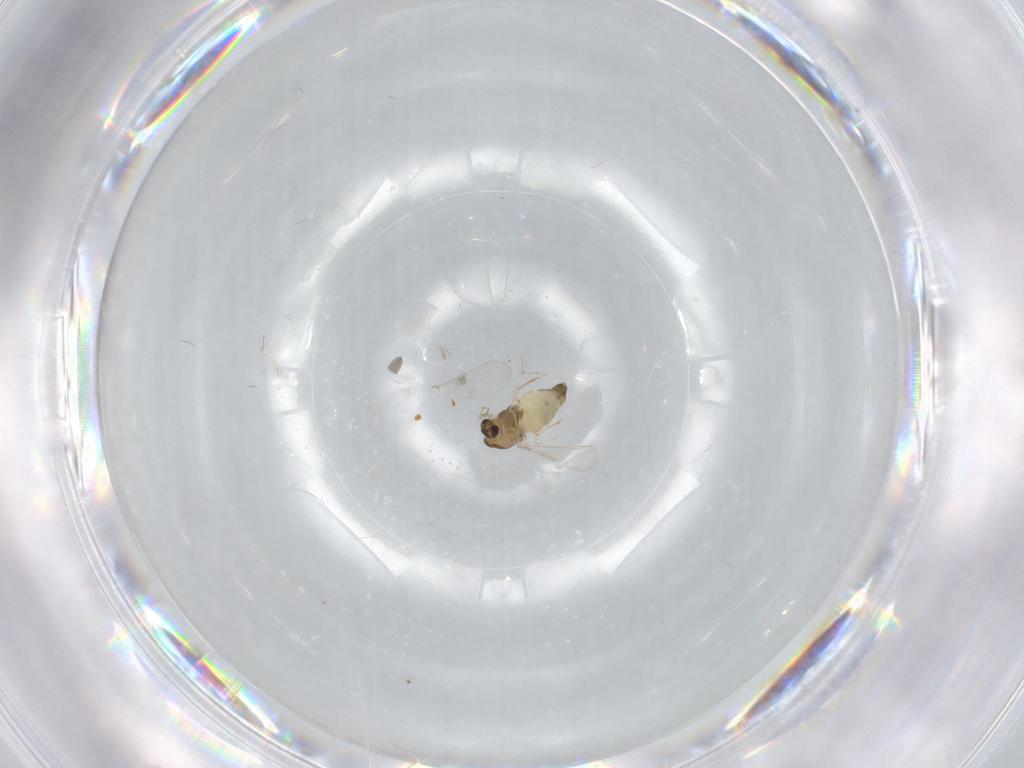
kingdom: Animalia
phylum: Arthropoda
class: Insecta
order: Diptera
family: Chironomidae
